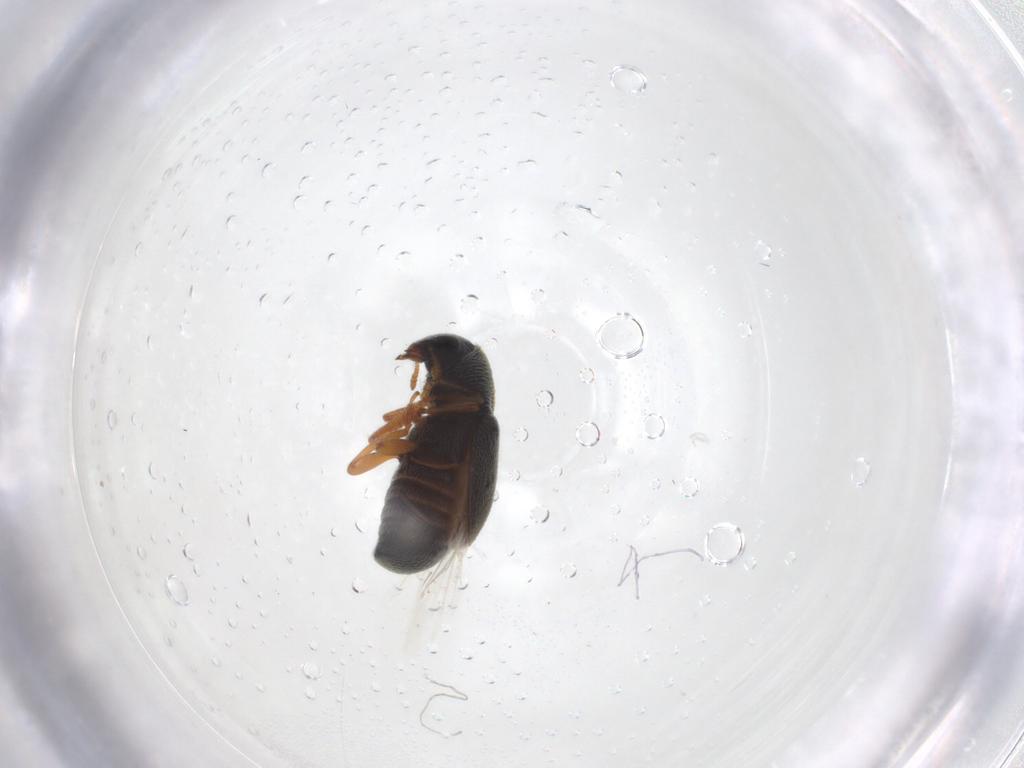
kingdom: Animalia
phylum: Arthropoda
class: Insecta
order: Coleoptera
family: Anthribidae
